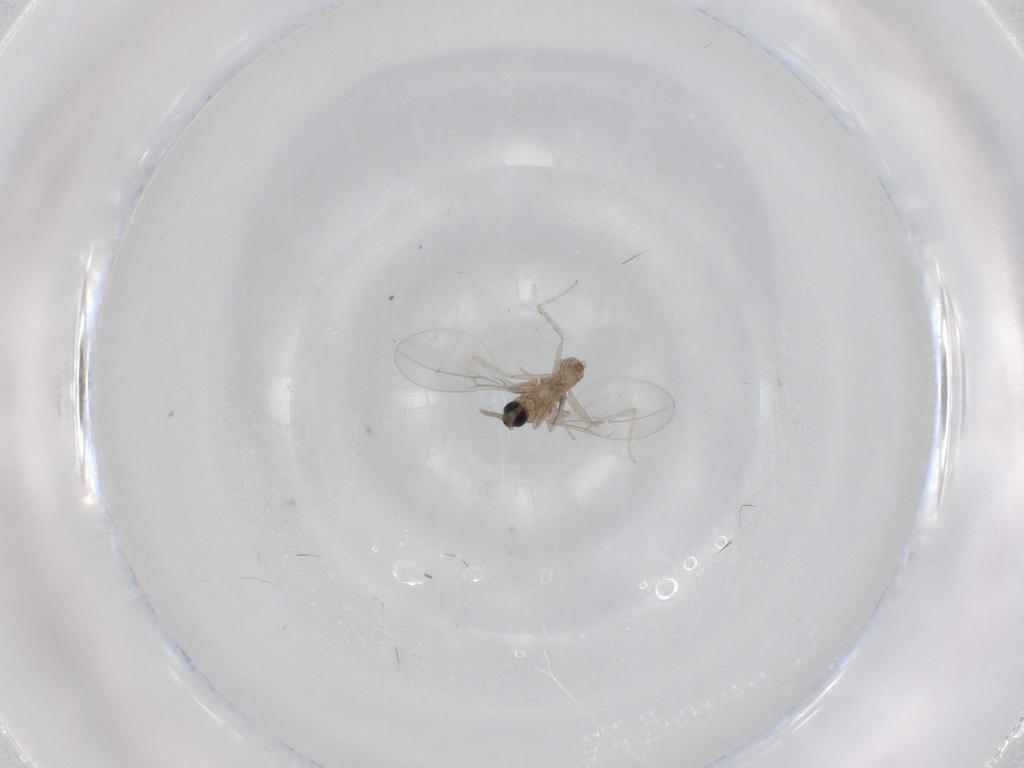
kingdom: Animalia
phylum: Arthropoda
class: Insecta
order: Diptera
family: Cecidomyiidae
